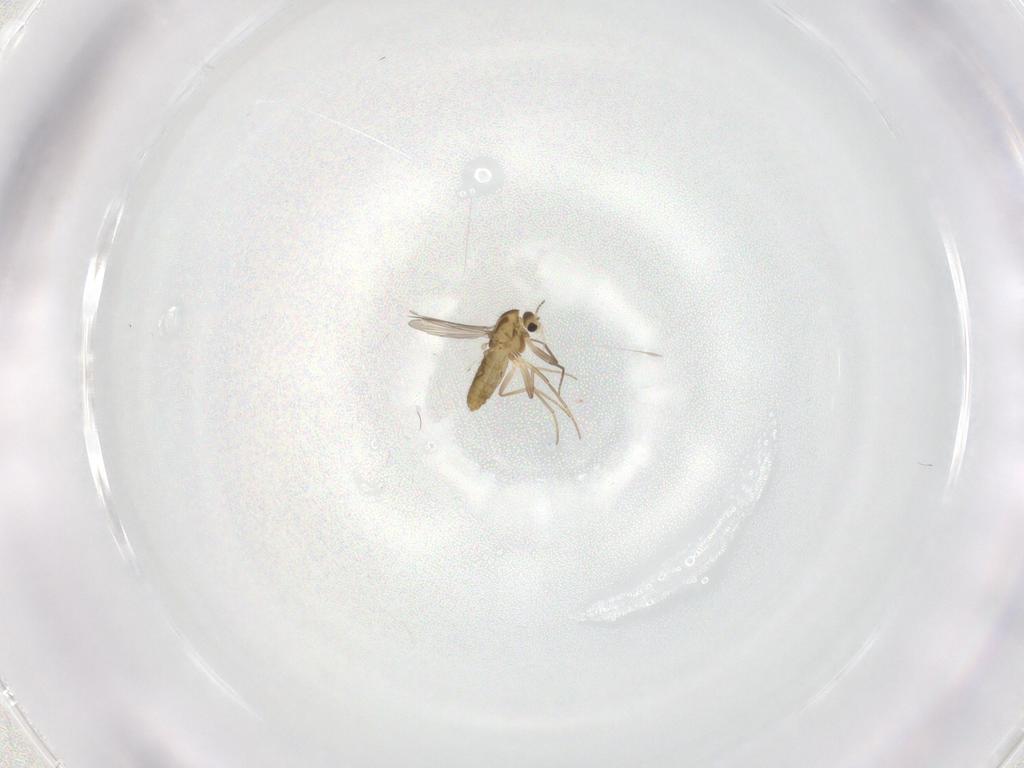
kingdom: Animalia
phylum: Arthropoda
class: Insecta
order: Diptera
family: Chironomidae
